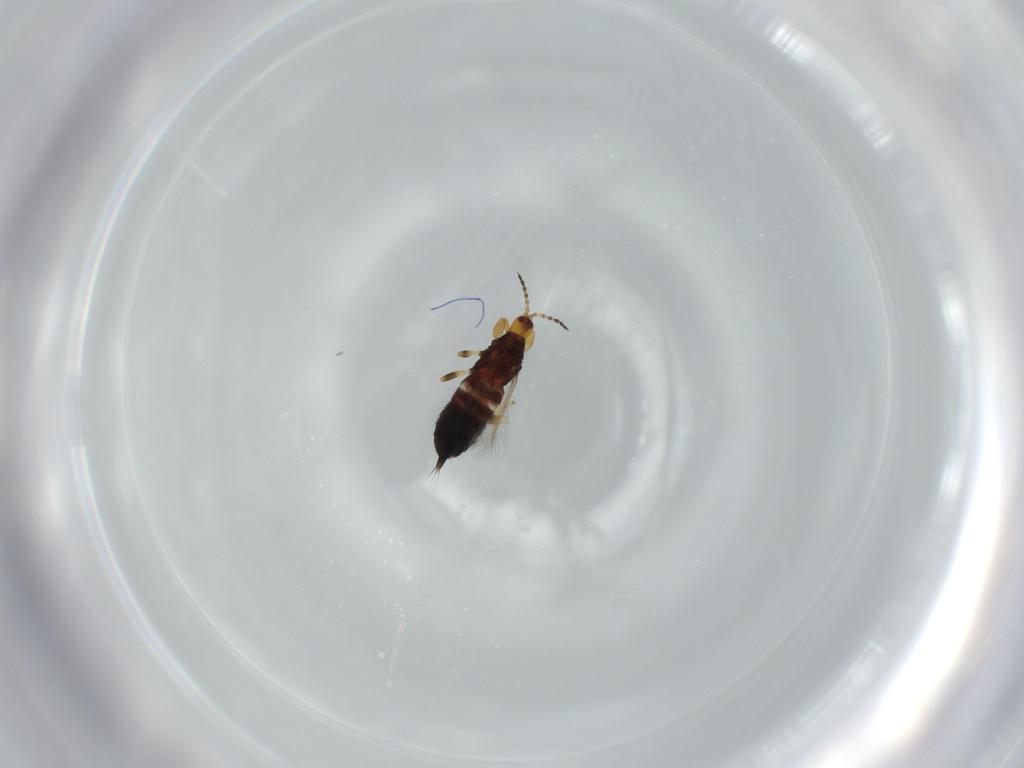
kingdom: Animalia
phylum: Arthropoda
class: Insecta
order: Thysanoptera
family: Phlaeothripidae
